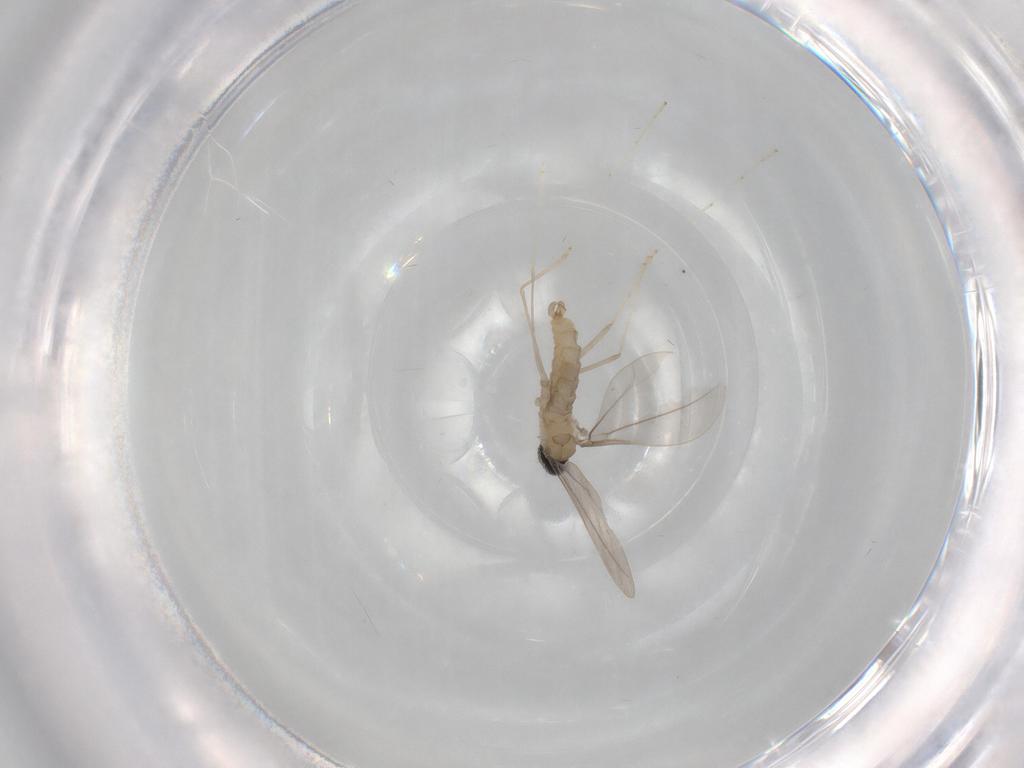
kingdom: Animalia
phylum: Arthropoda
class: Insecta
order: Diptera
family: Cecidomyiidae
